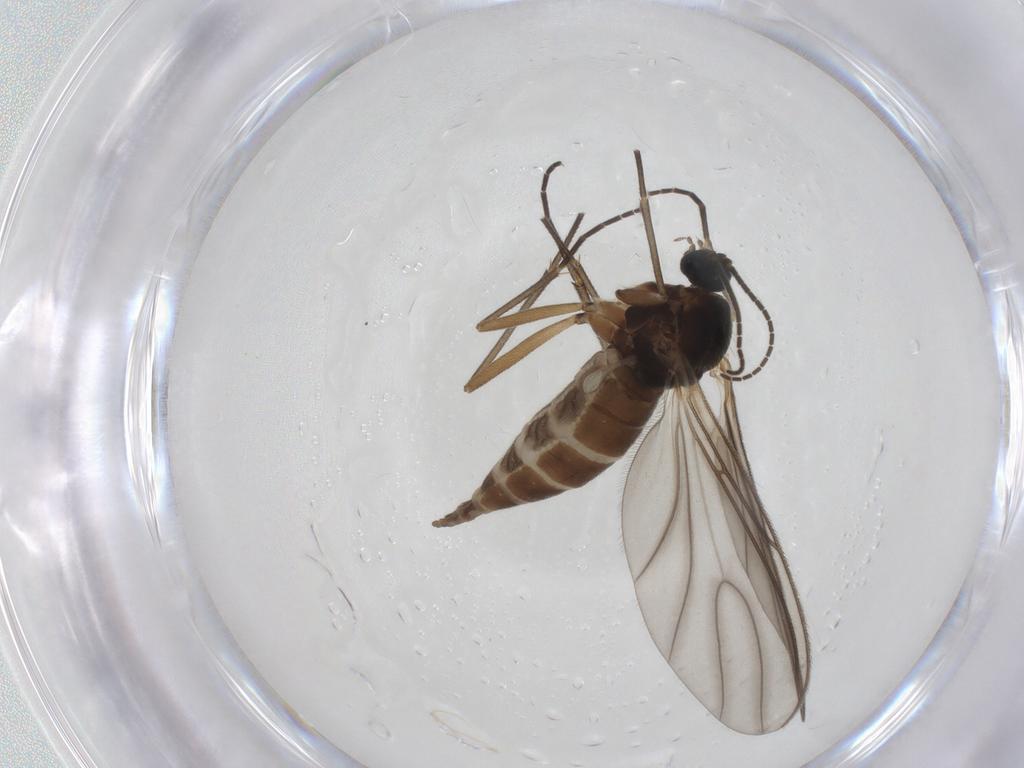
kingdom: Animalia
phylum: Arthropoda
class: Insecta
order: Diptera
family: Sciaridae
